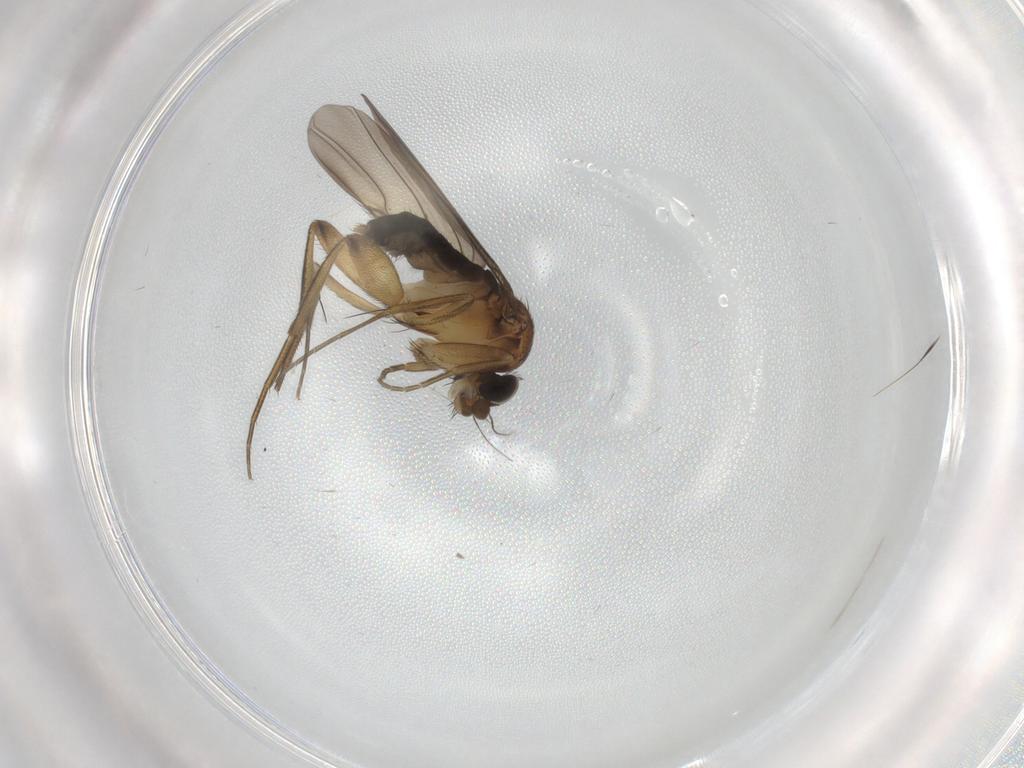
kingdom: Animalia
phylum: Arthropoda
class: Insecta
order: Diptera
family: Phoridae
